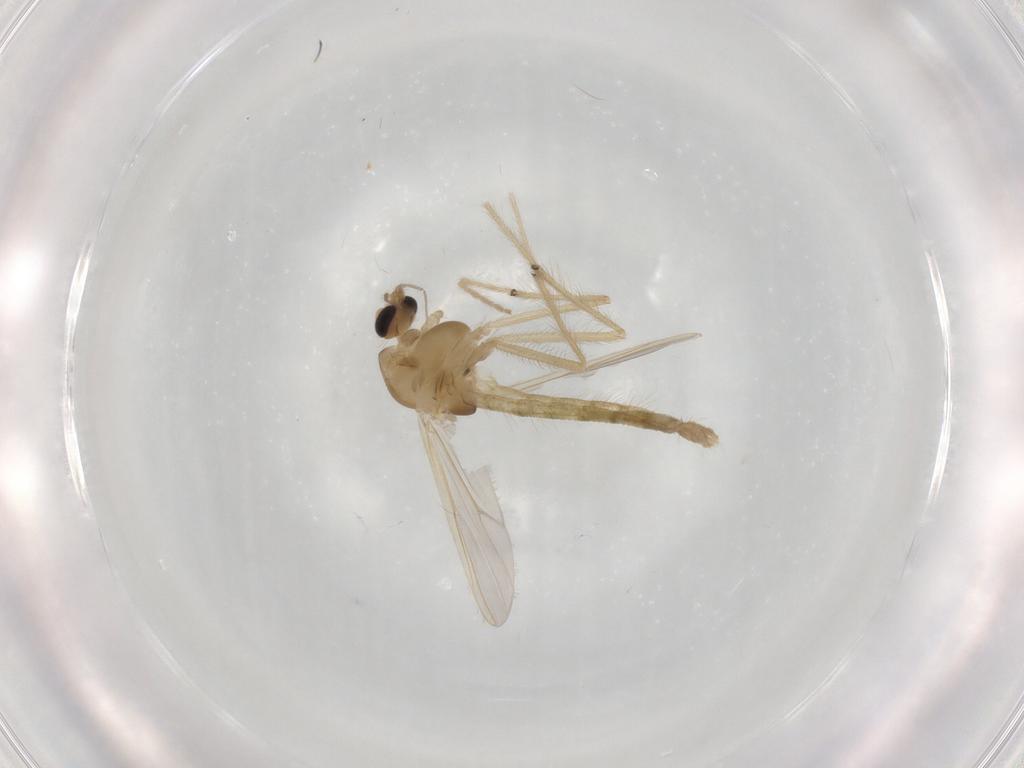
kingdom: Animalia
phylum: Arthropoda
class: Insecta
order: Diptera
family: Chironomidae
